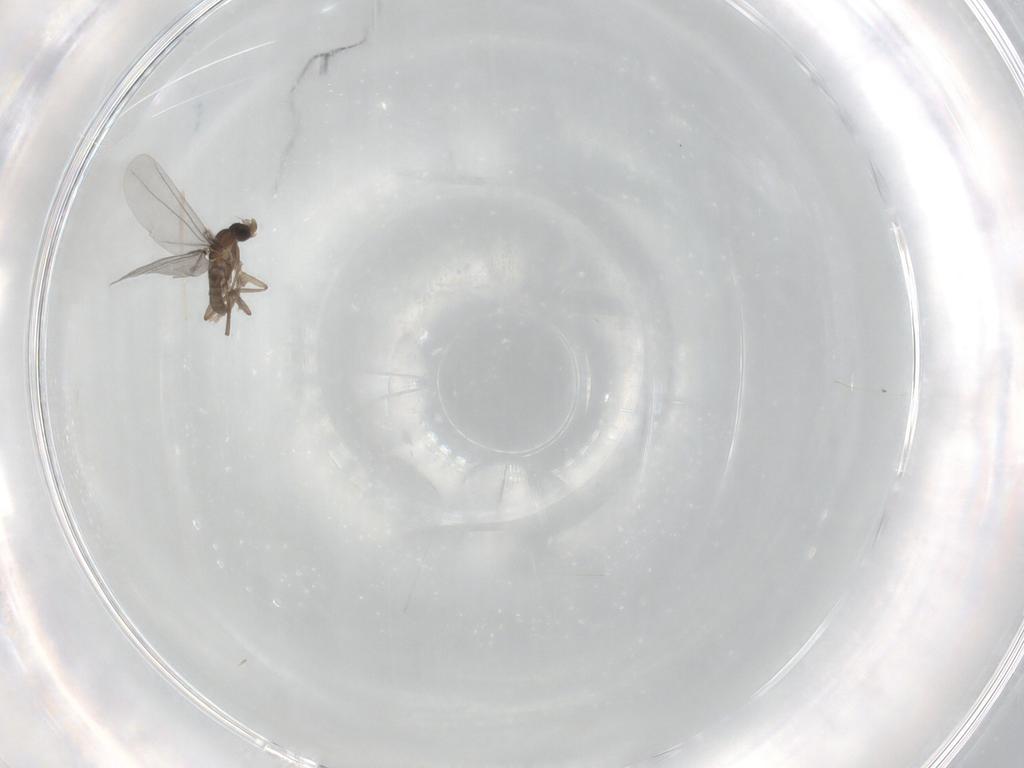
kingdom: Animalia
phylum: Arthropoda
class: Insecta
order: Diptera
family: Phoridae
